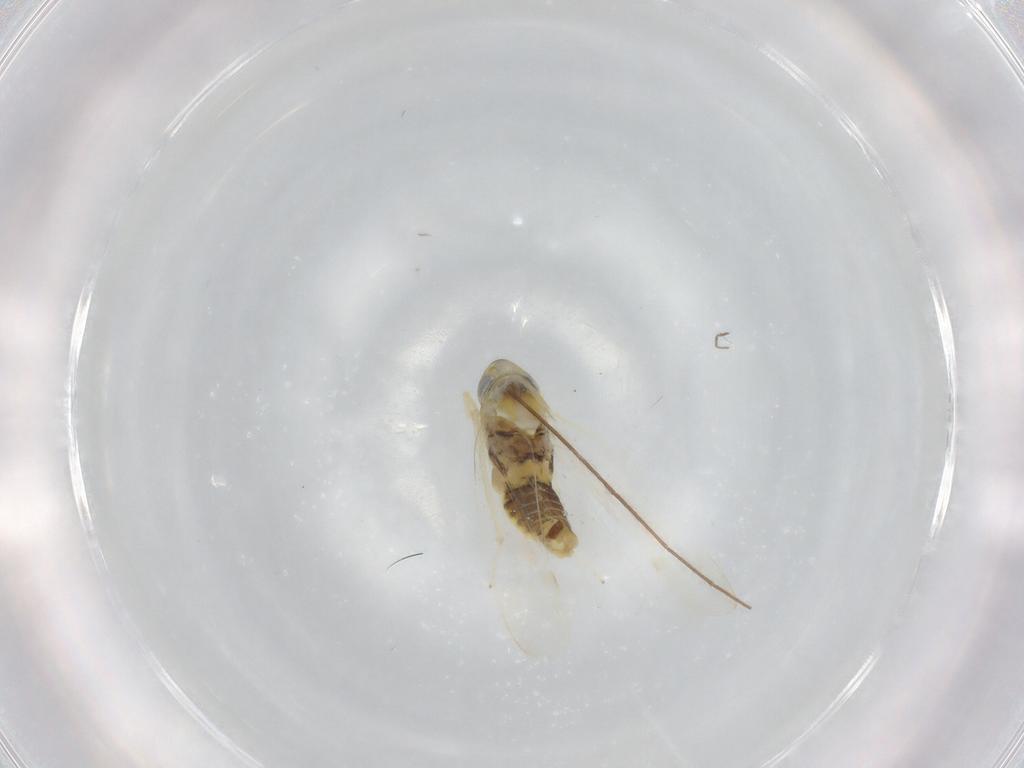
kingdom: Animalia
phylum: Arthropoda
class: Insecta
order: Hemiptera
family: Cicadellidae
